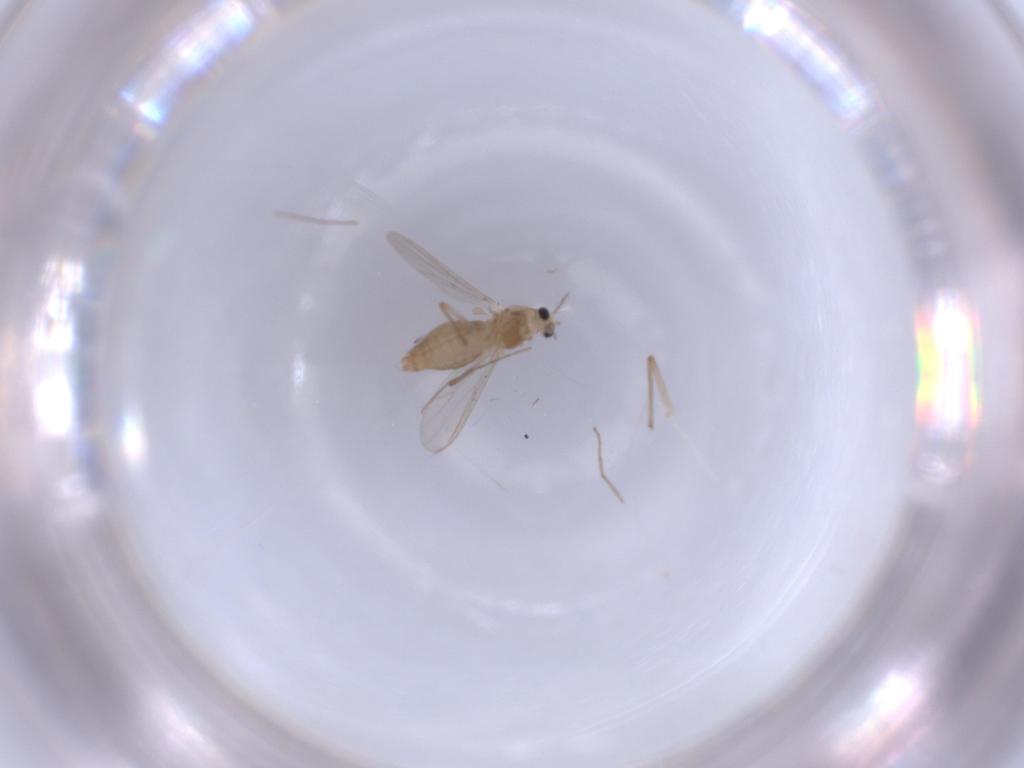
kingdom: Animalia
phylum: Arthropoda
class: Insecta
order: Diptera
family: Chironomidae
